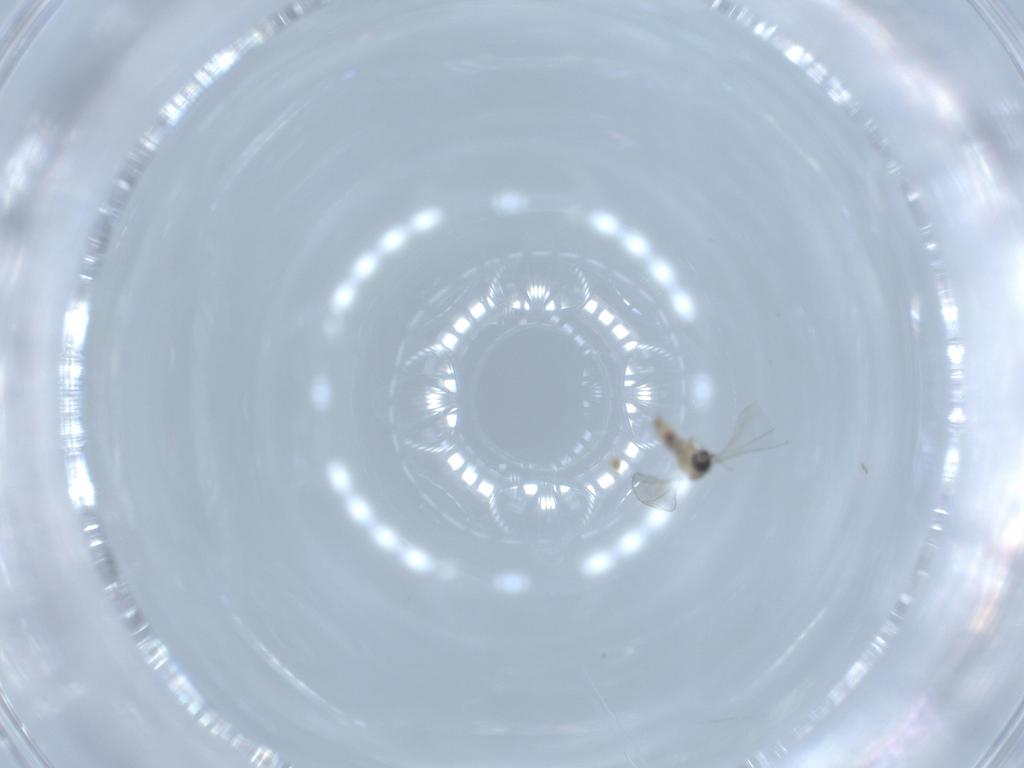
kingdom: Animalia
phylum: Arthropoda
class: Insecta
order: Diptera
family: Cecidomyiidae
